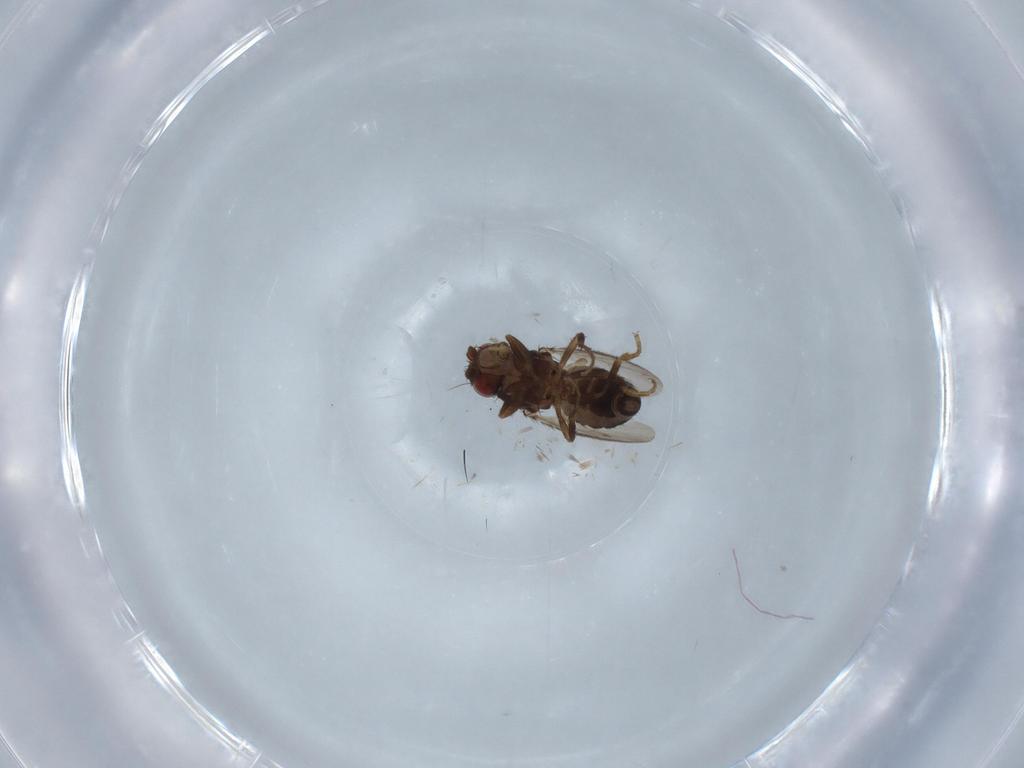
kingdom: Animalia
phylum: Arthropoda
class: Insecta
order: Diptera
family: Sphaeroceridae
